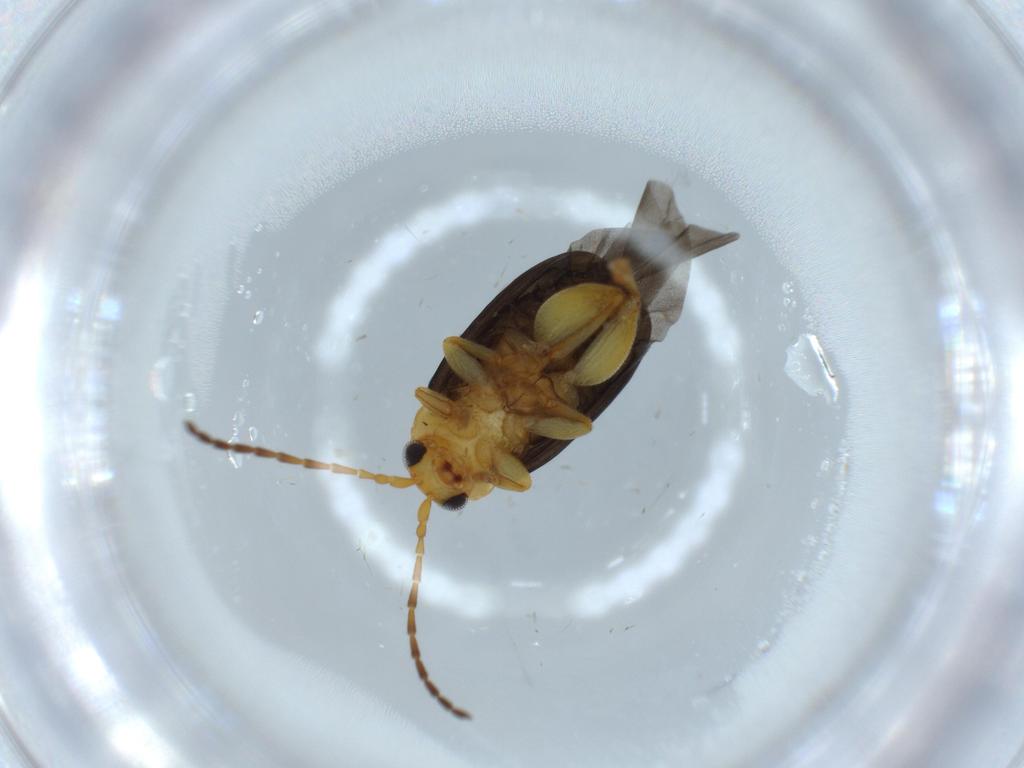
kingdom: Animalia
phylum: Arthropoda
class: Insecta
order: Coleoptera
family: Chrysomelidae
